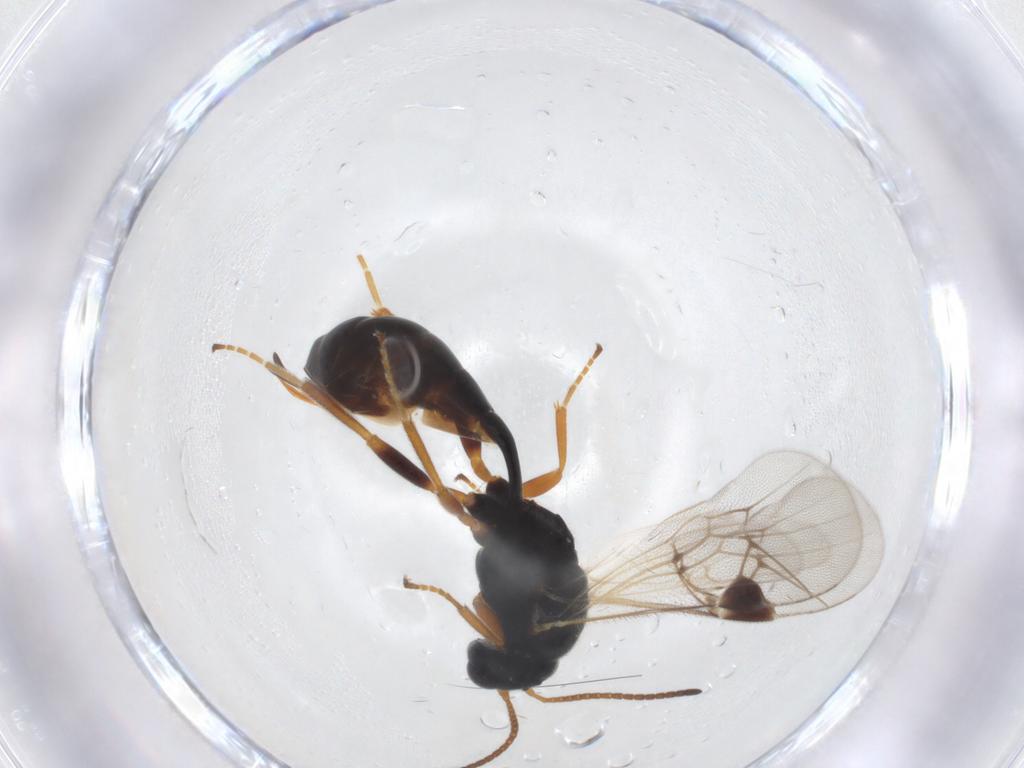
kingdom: Animalia
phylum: Arthropoda
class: Insecta
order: Hymenoptera
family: Ichneumonidae
